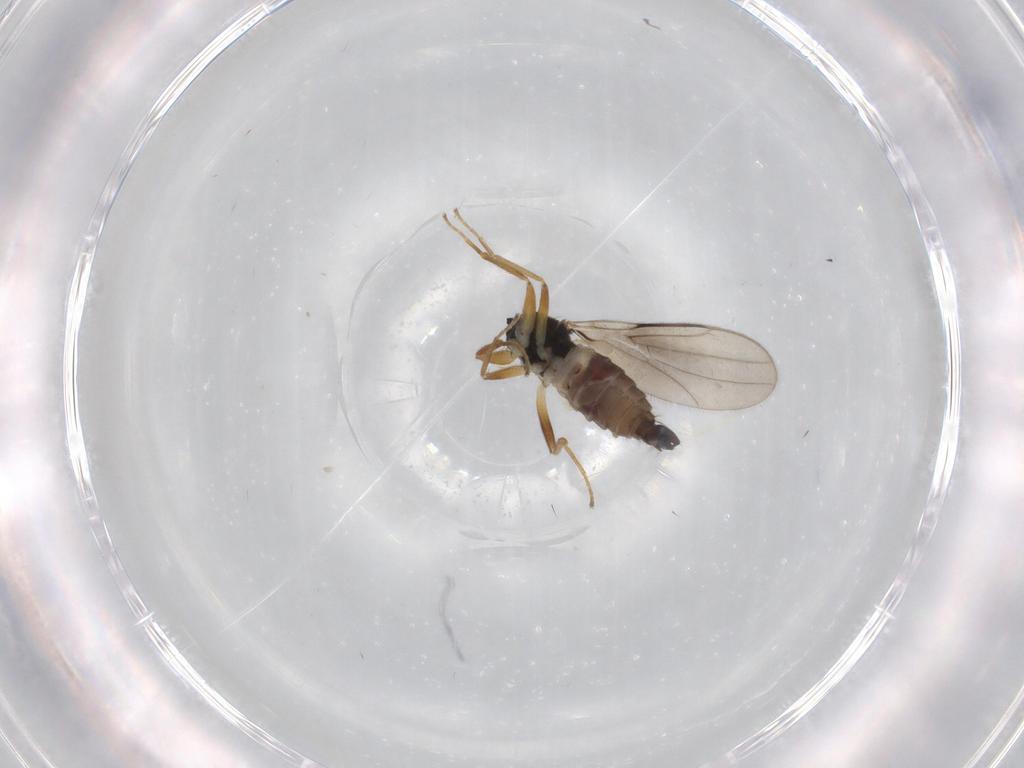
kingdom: Animalia
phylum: Arthropoda
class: Insecta
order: Diptera
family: Hybotidae
